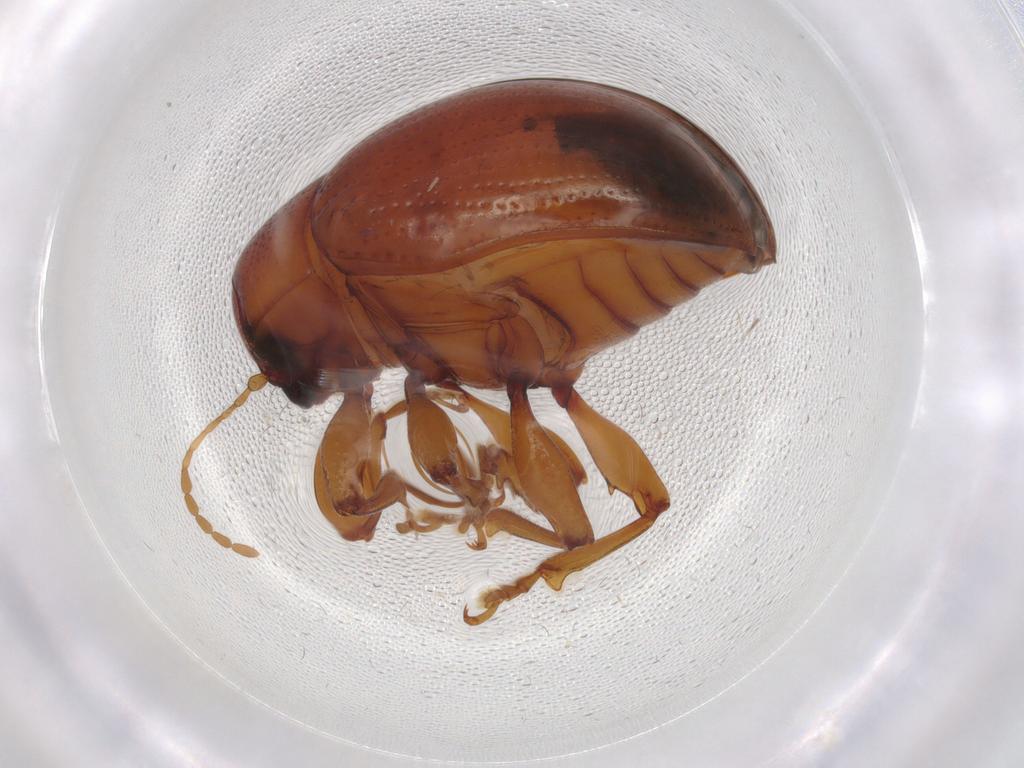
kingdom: Animalia
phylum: Arthropoda
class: Insecta
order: Coleoptera
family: Chrysomelidae
